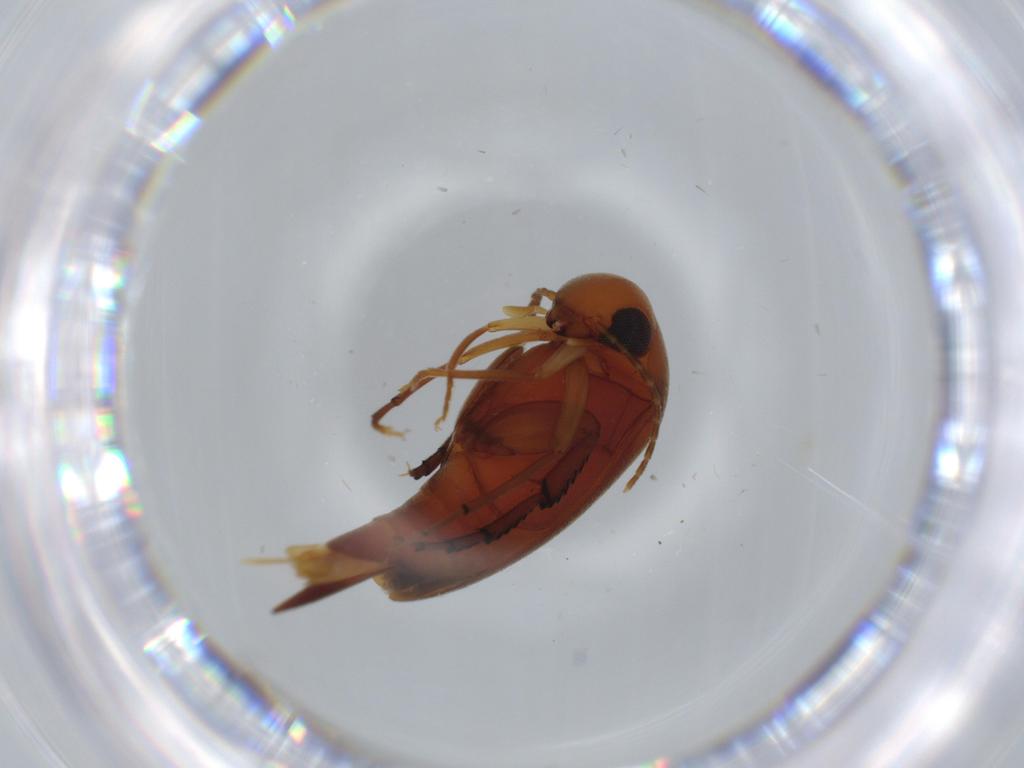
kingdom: Animalia
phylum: Arthropoda
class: Insecta
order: Coleoptera
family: Mordellidae
